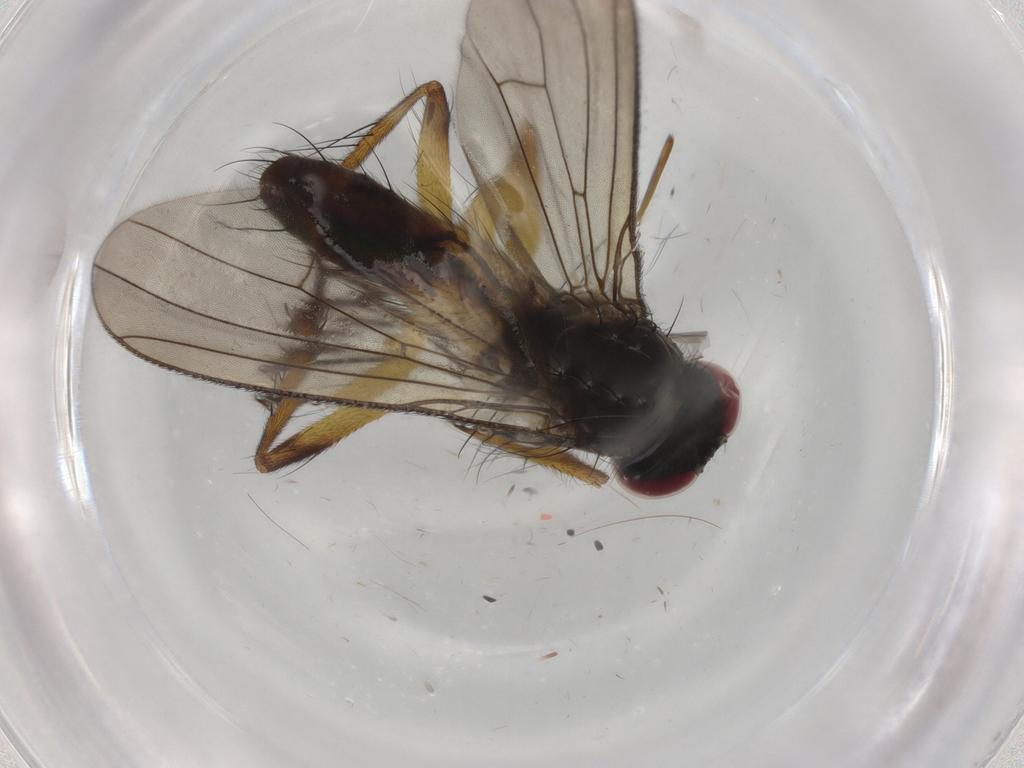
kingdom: Animalia
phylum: Arthropoda
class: Insecta
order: Diptera
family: Muscidae
